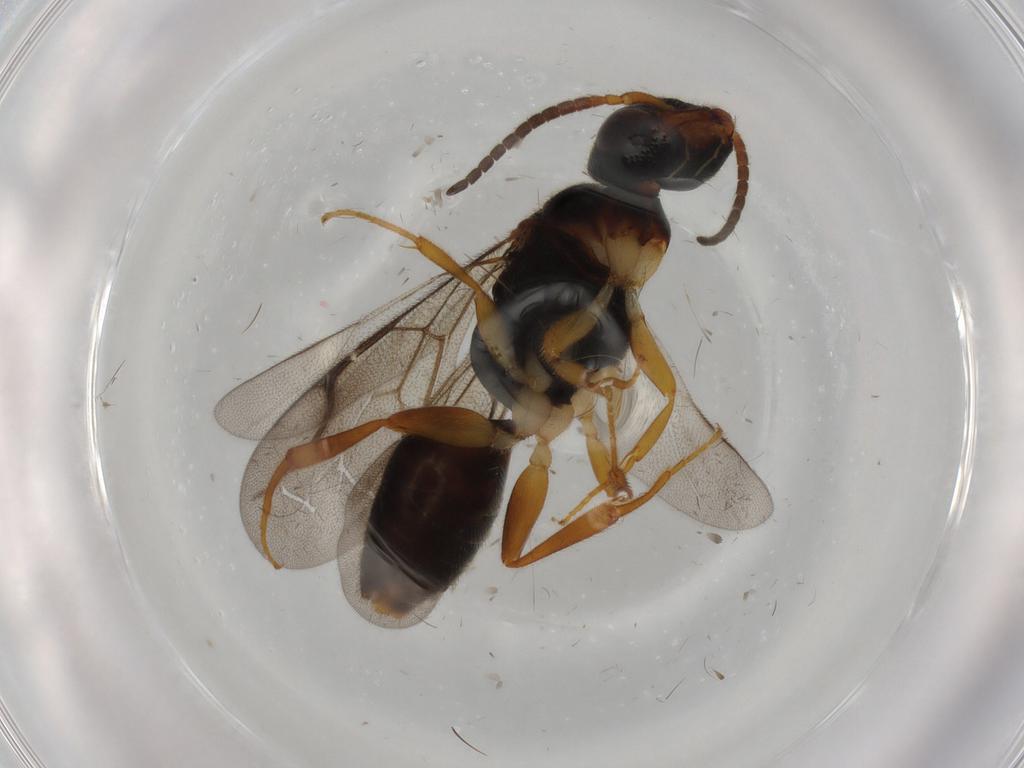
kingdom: Animalia
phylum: Arthropoda
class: Insecta
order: Hymenoptera
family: Bethylidae
